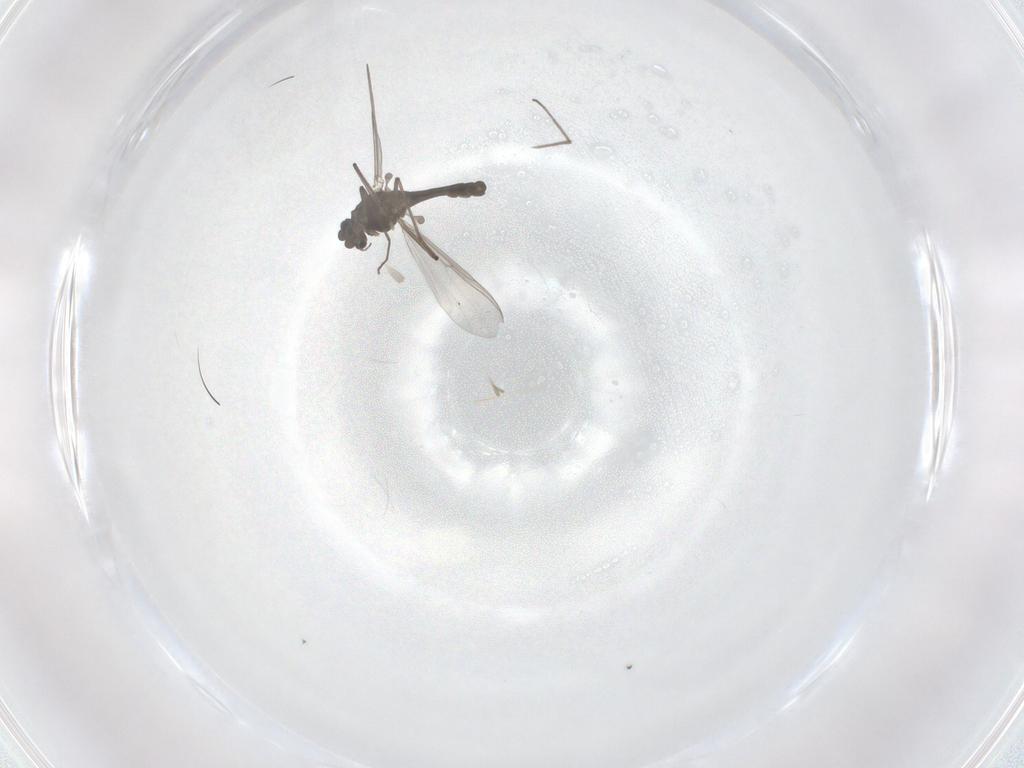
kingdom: Animalia
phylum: Arthropoda
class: Insecta
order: Diptera
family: Chironomidae
